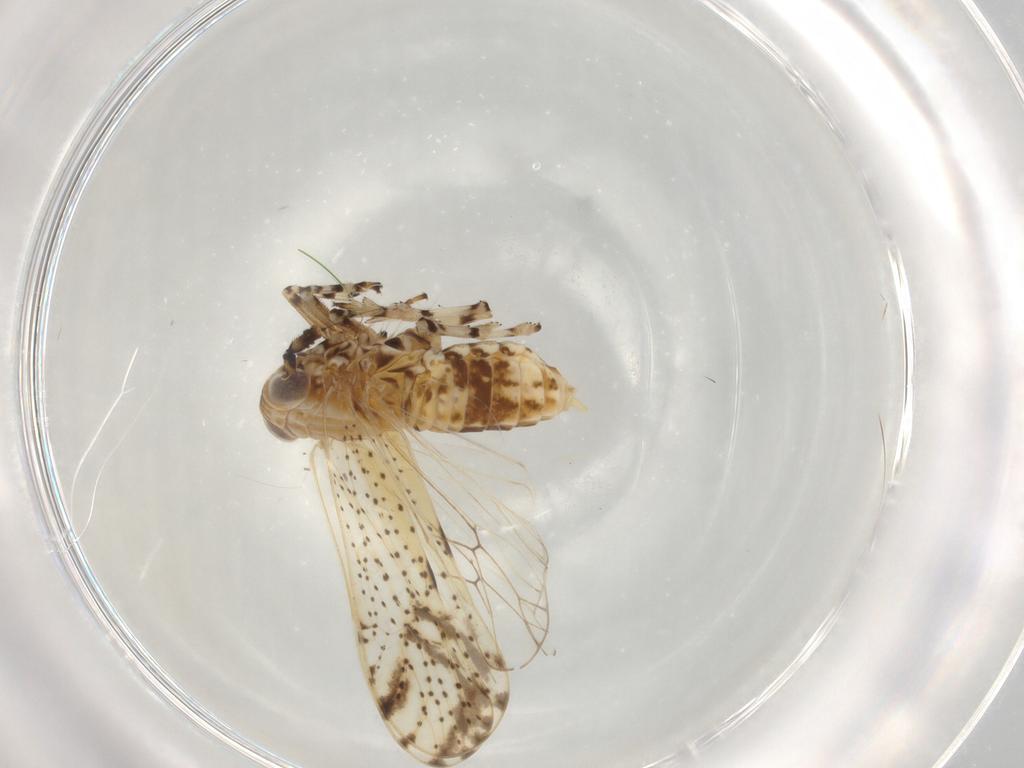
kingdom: Animalia
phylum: Arthropoda
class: Insecta
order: Hemiptera
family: Delphacidae
